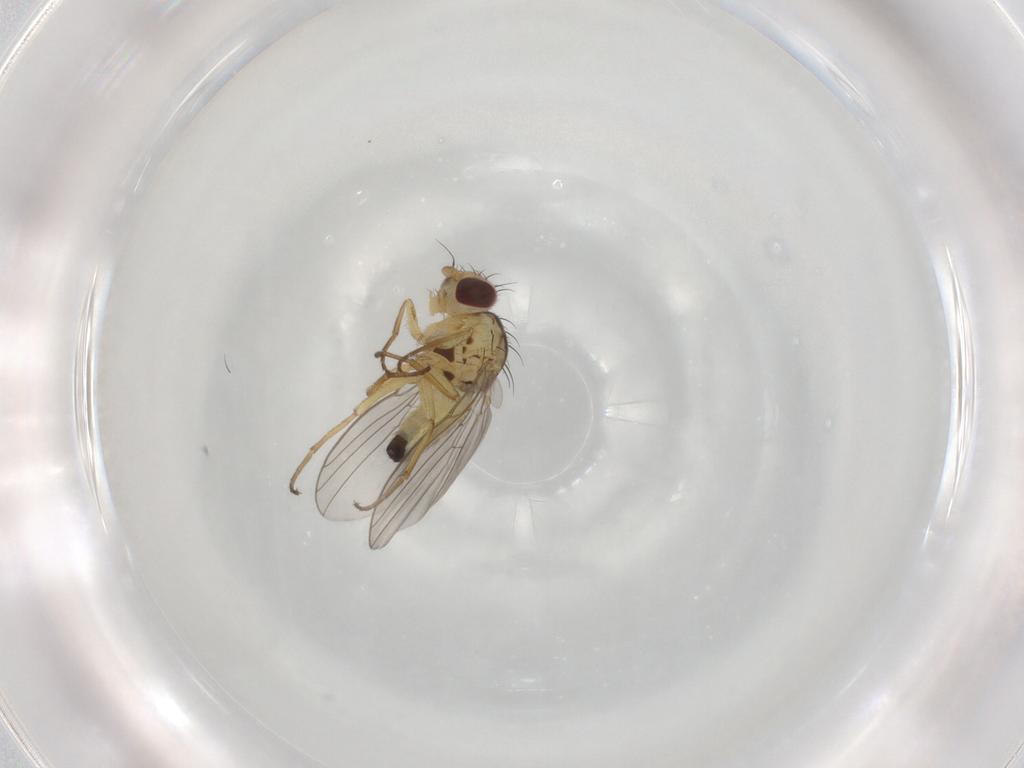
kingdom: Animalia
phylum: Arthropoda
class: Insecta
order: Diptera
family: Agromyzidae
